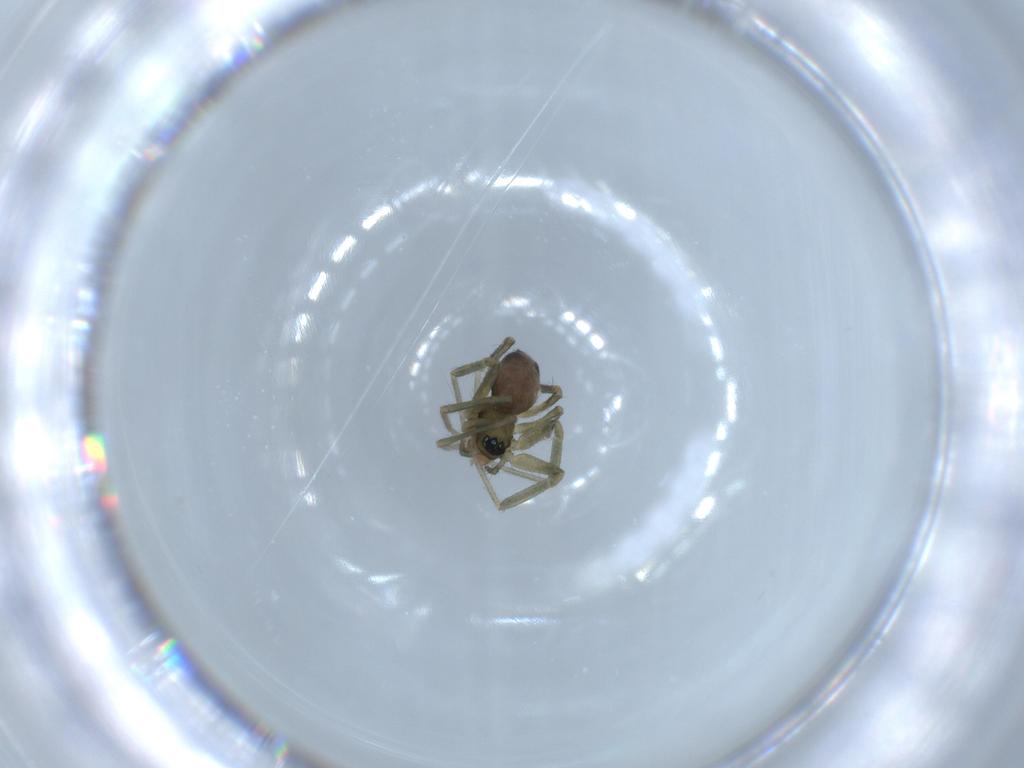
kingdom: Animalia
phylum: Arthropoda
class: Arachnida
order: Araneae
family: Linyphiidae
